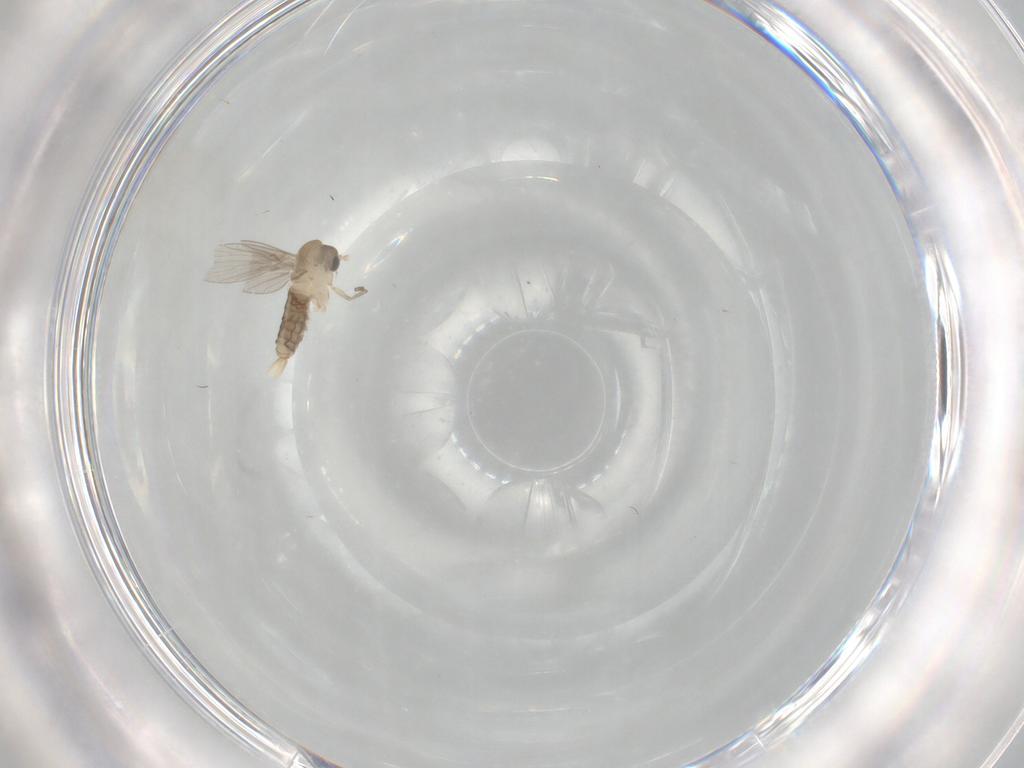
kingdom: Animalia
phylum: Arthropoda
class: Insecta
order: Diptera
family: Psychodidae
